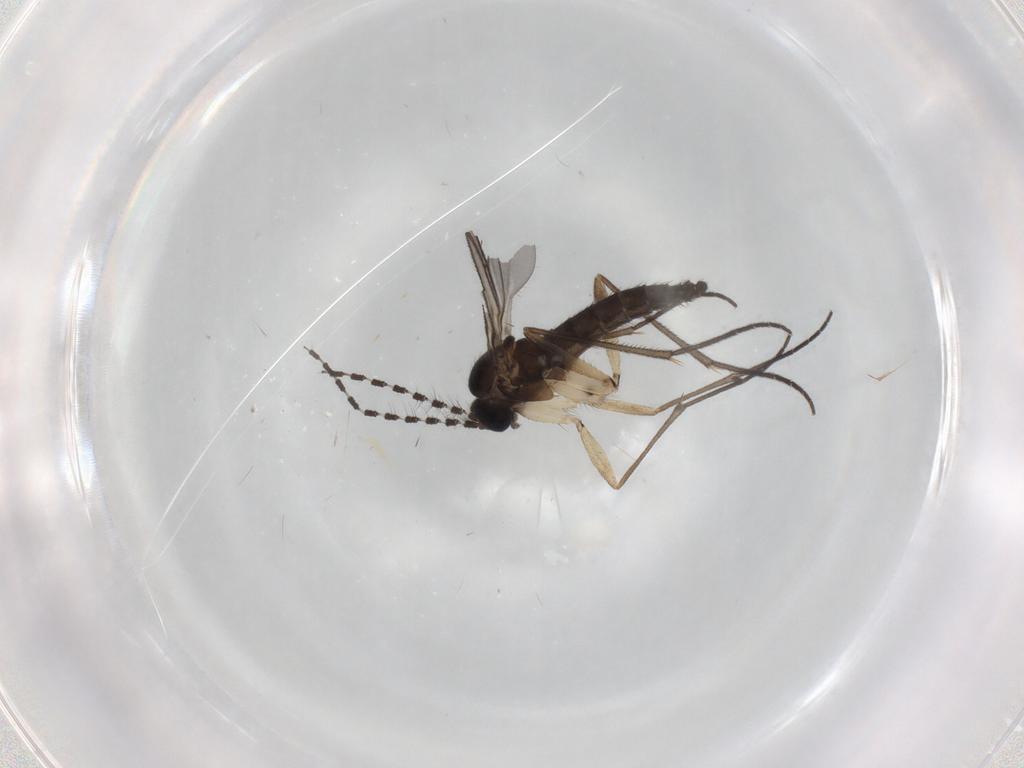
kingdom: Animalia
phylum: Arthropoda
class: Insecta
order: Diptera
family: Sciaridae
